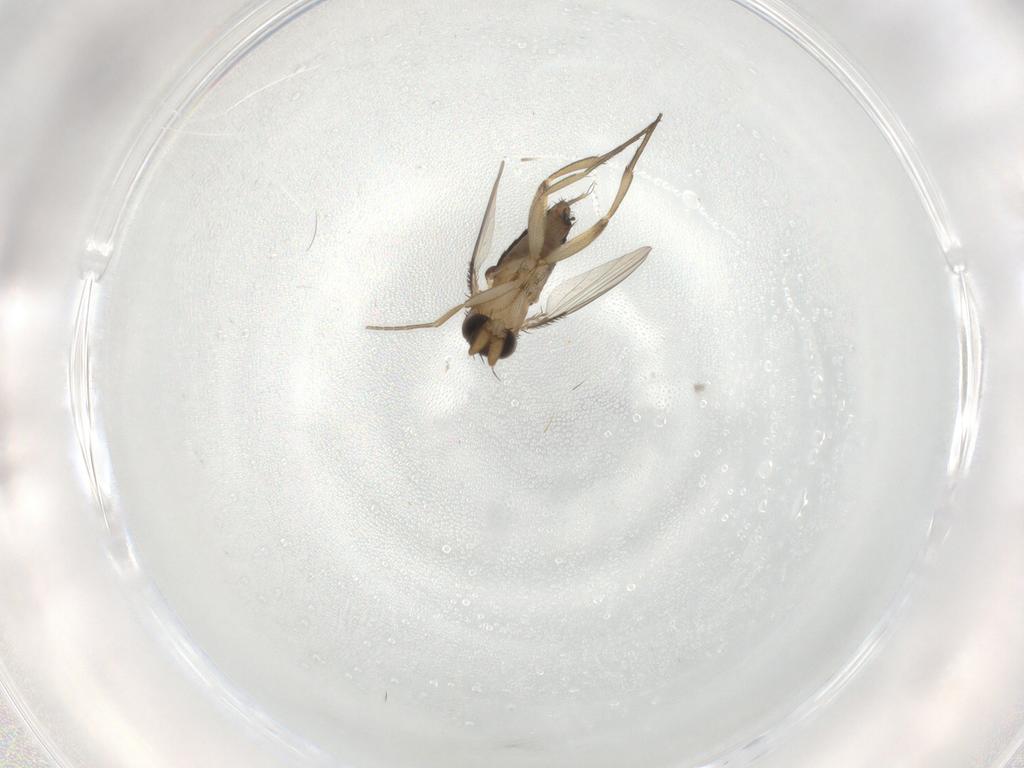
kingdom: Animalia
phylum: Arthropoda
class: Insecta
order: Diptera
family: Phoridae
